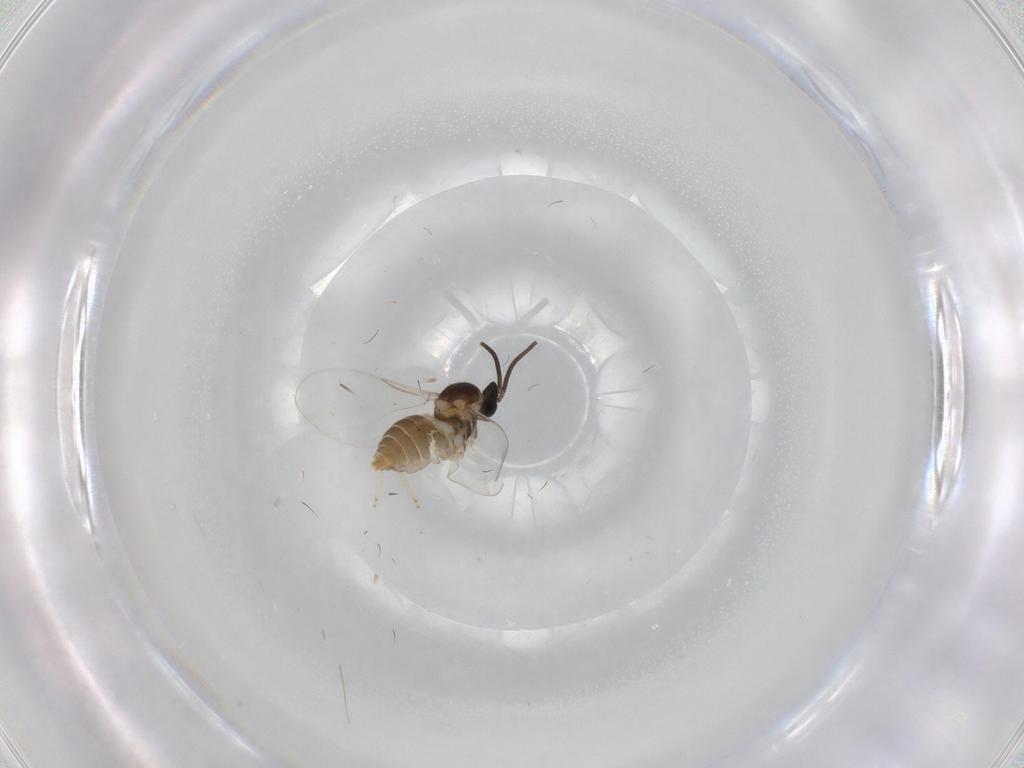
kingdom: Animalia
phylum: Arthropoda
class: Insecta
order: Diptera
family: Cecidomyiidae
